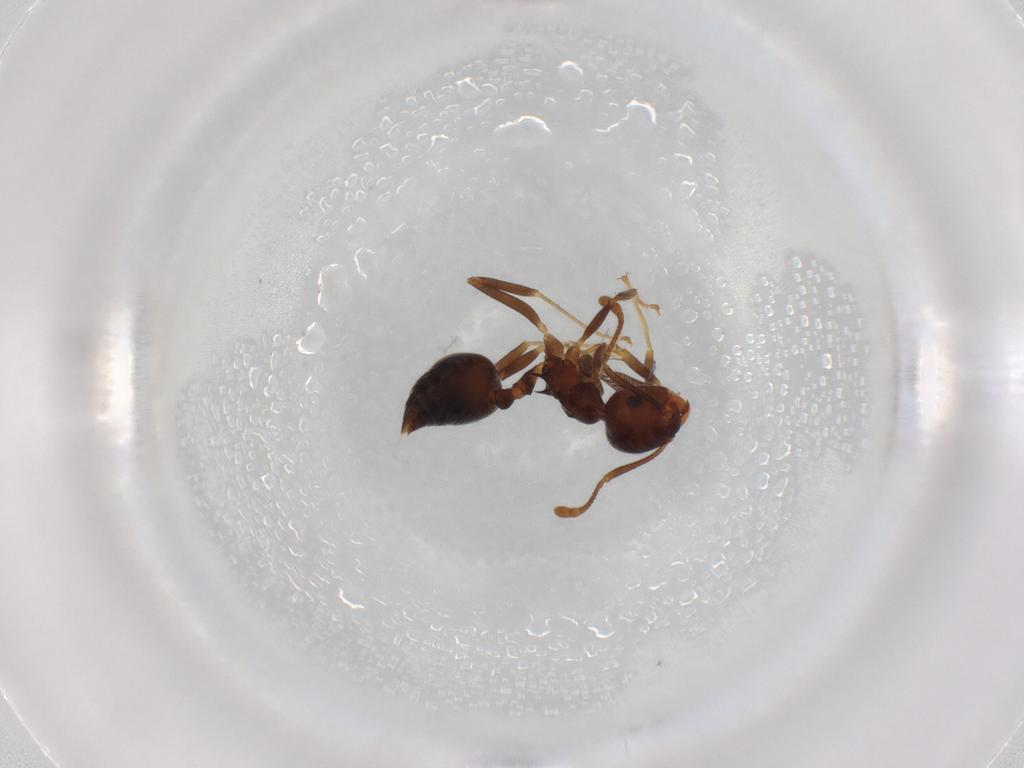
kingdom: Animalia
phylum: Arthropoda
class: Insecta
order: Hymenoptera
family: Formicidae
